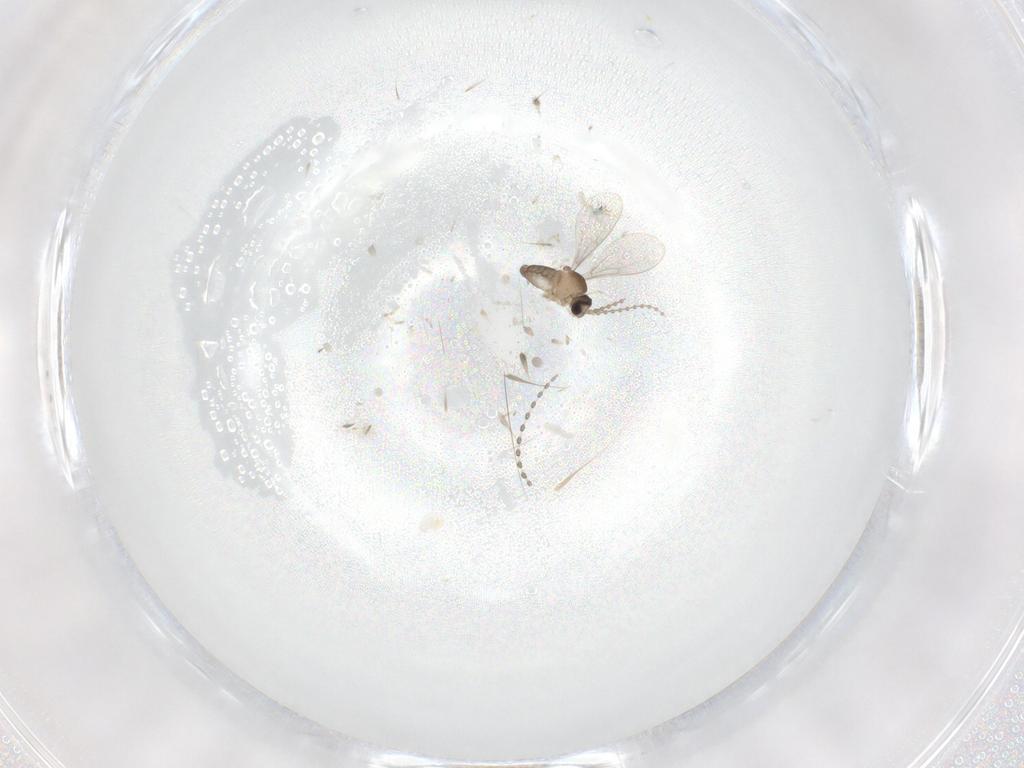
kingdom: Animalia
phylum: Arthropoda
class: Insecta
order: Diptera
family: Cecidomyiidae
